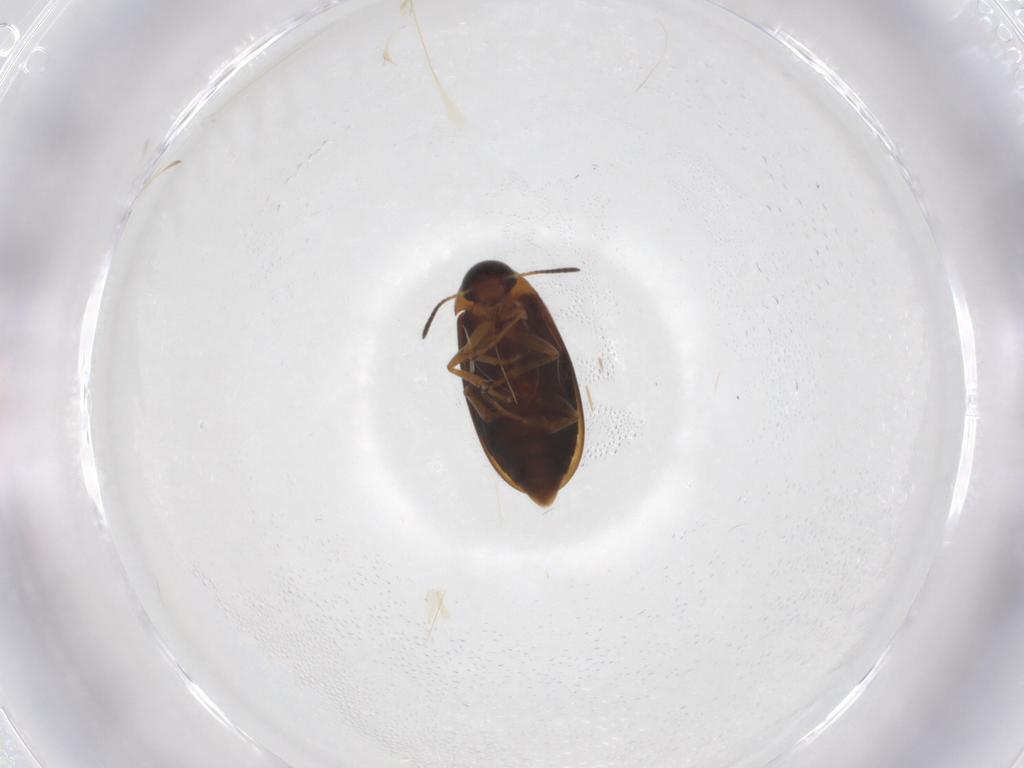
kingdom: Animalia
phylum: Arthropoda
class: Insecta
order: Coleoptera
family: Scraptiidae
